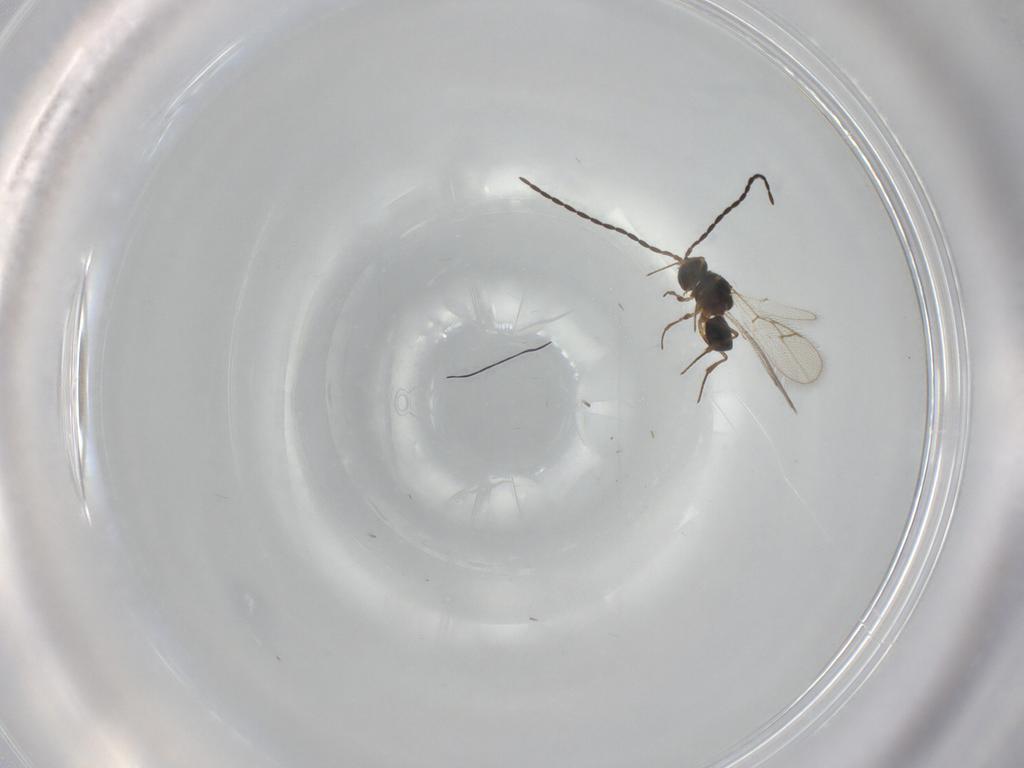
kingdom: Animalia
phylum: Arthropoda
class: Insecta
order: Hymenoptera
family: Figitidae
